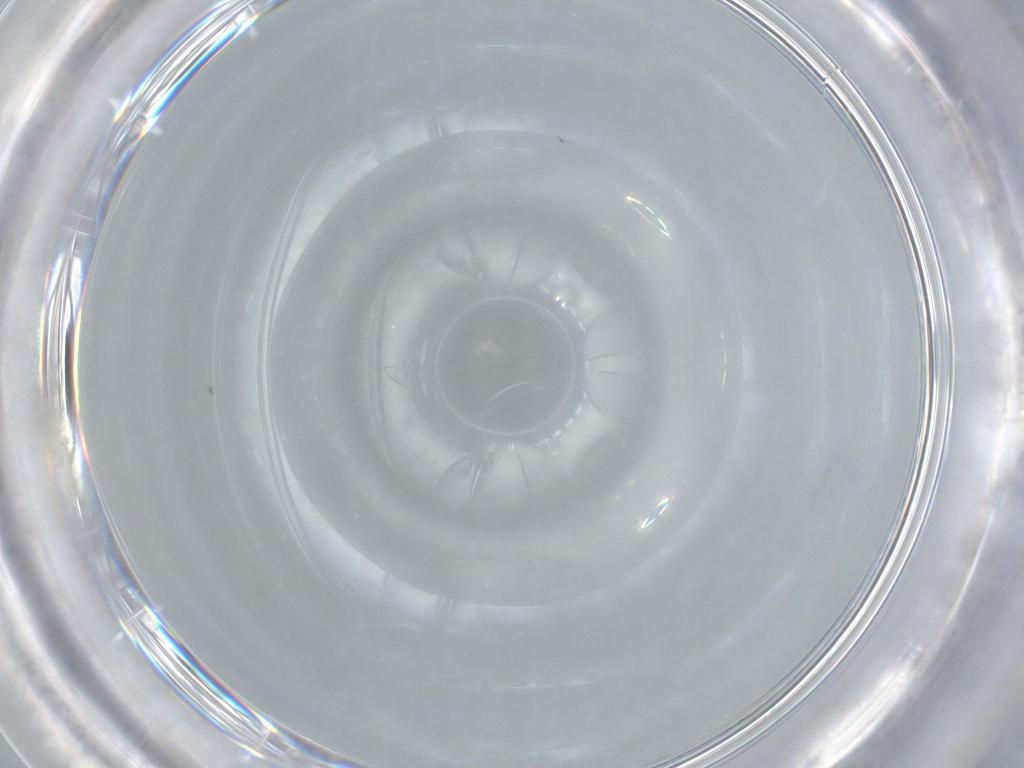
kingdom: Animalia
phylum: Arthropoda
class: Insecta
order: Diptera
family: Cecidomyiidae
